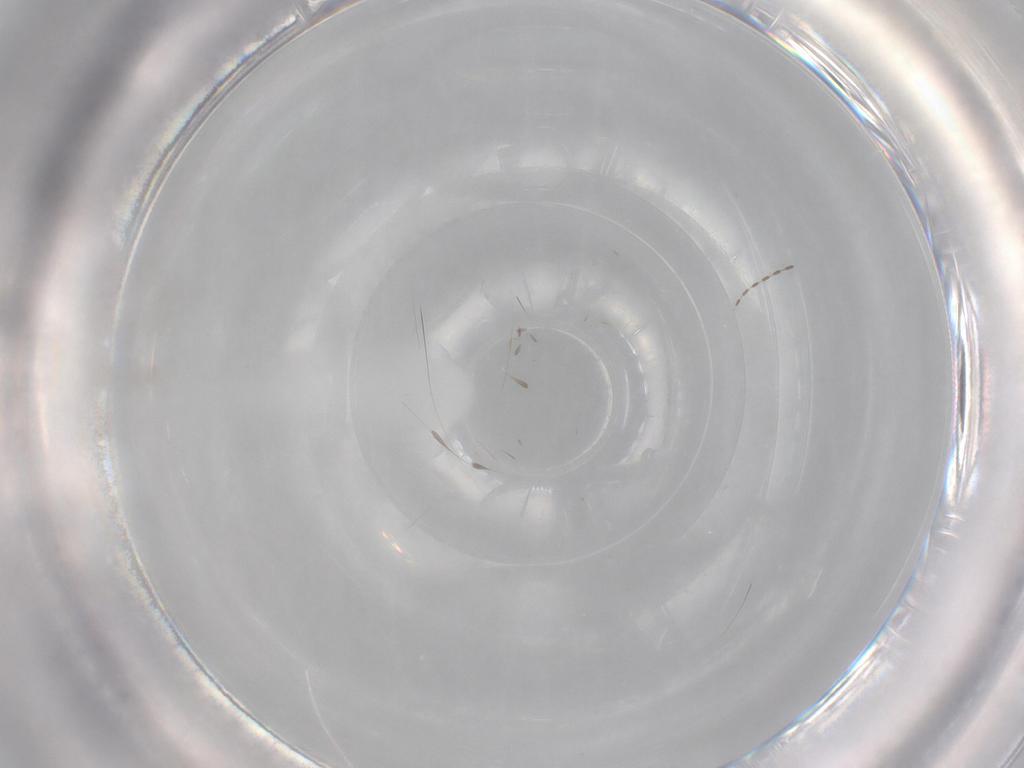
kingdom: Animalia
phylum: Arthropoda
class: Insecta
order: Diptera
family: Psychodidae
